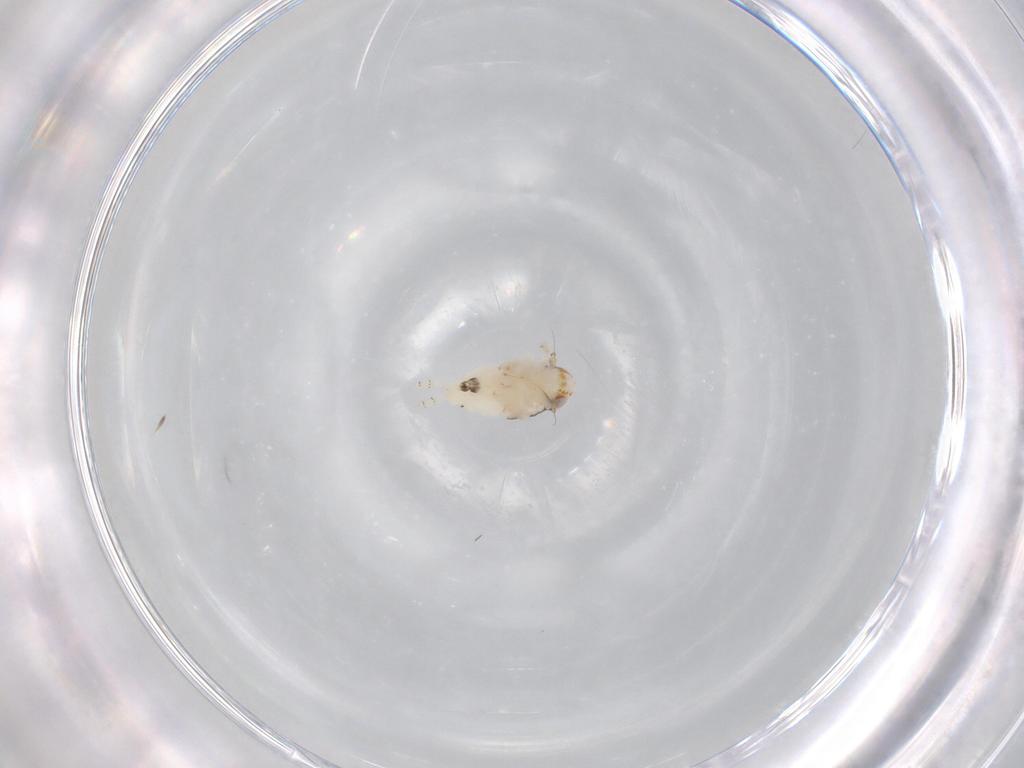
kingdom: Animalia
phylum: Arthropoda
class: Insecta
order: Hemiptera
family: Nogodinidae
